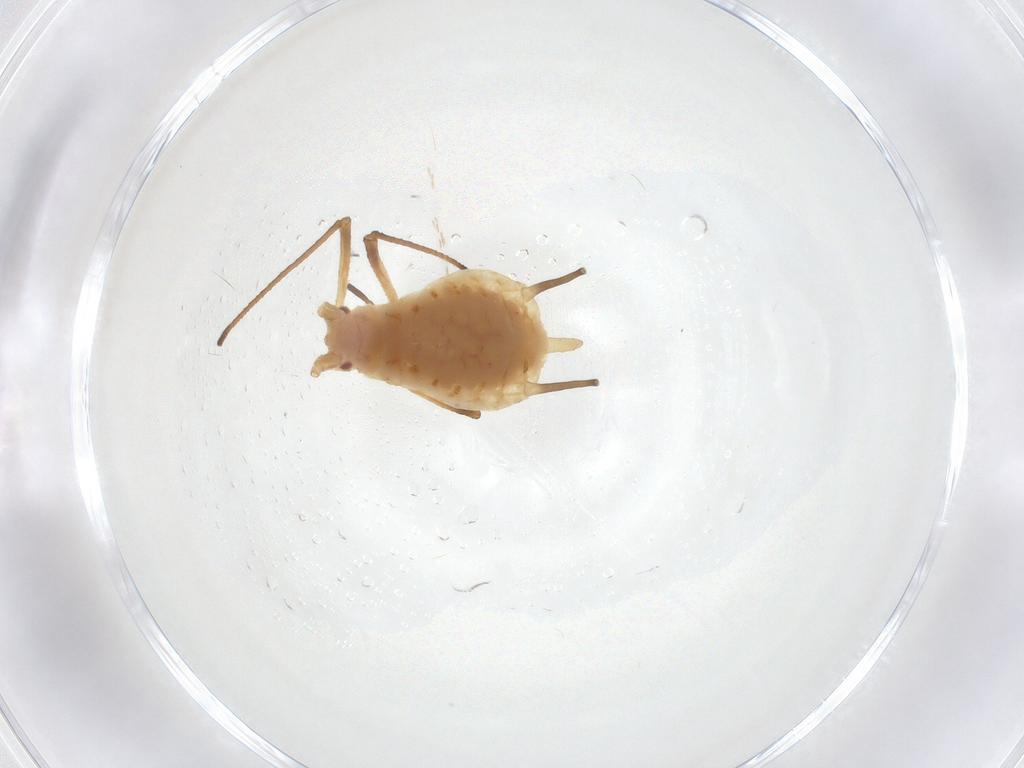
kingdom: Animalia
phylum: Arthropoda
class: Insecta
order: Hemiptera
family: Aphididae
